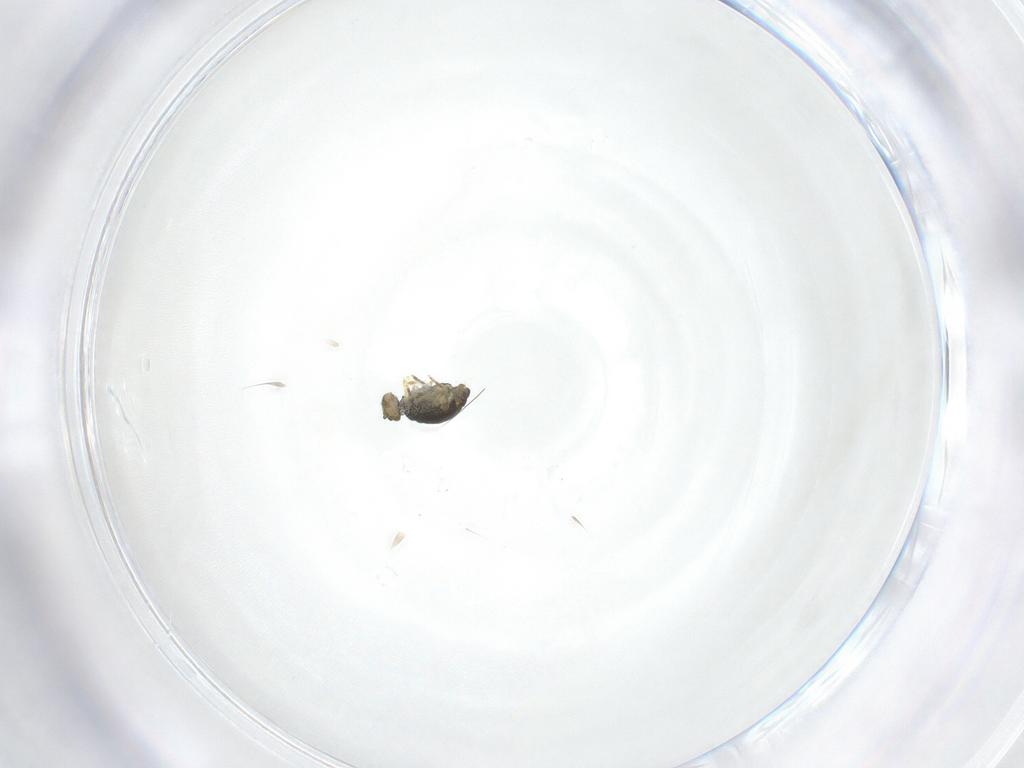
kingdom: Animalia
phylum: Arthropoda
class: Collembola
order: Symphypleona
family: Katiannidae
